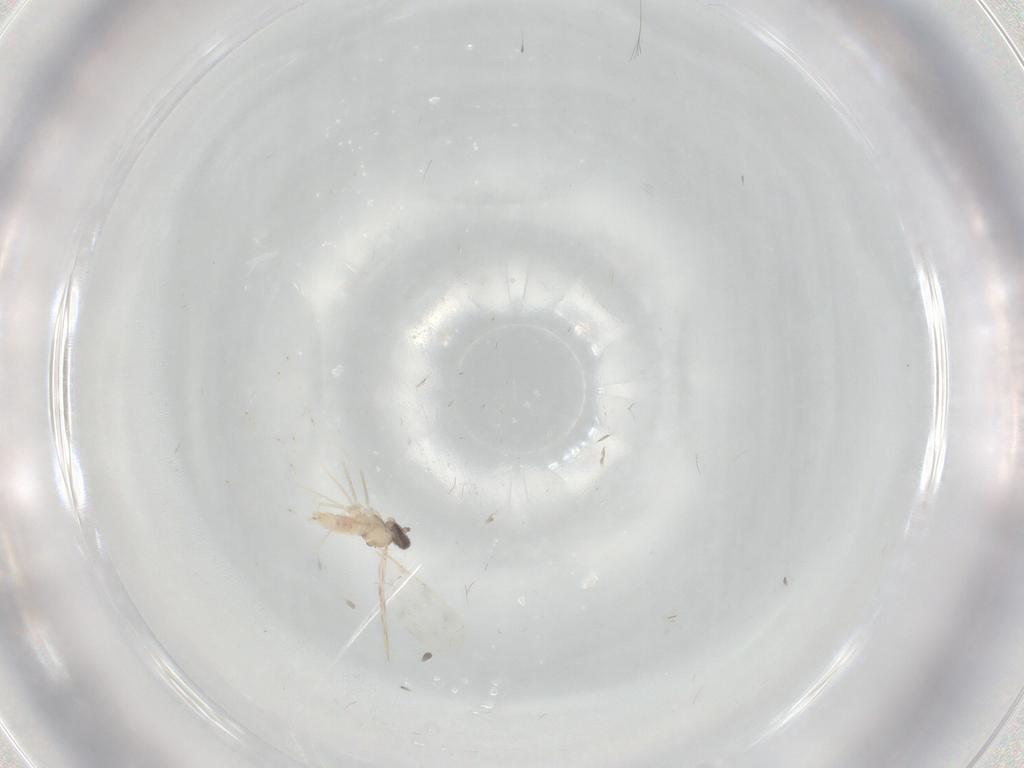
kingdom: Animalia
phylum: Arthropoda
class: Insecta
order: Diptera
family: Cecidomyiidae
